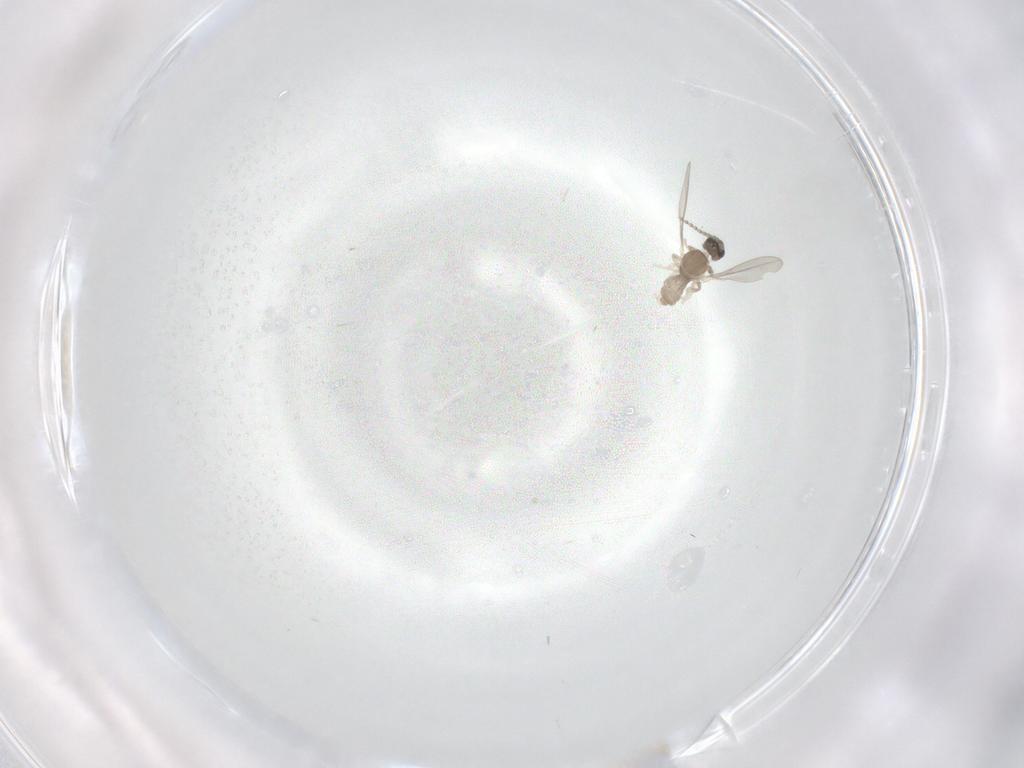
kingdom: Animalia
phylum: Arthropoda
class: Insecta
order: Diptera
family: Cecidomyiidae
